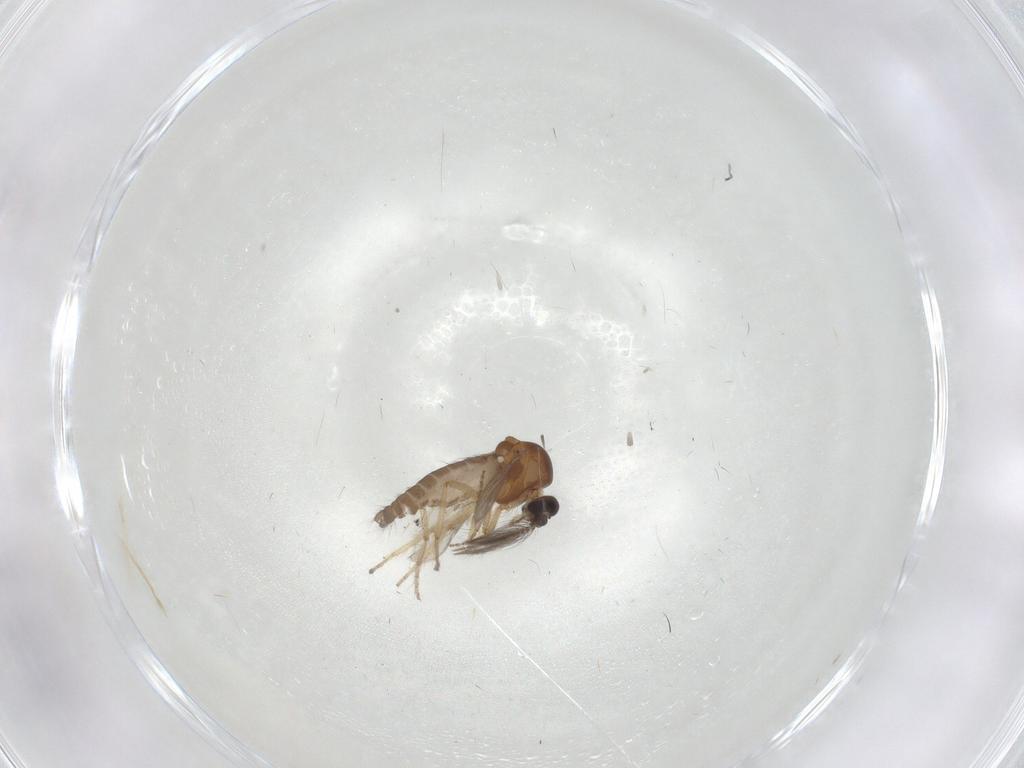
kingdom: Animalia
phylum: Arthropoda
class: Insecta
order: Diptera
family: Ceratopogonidae
